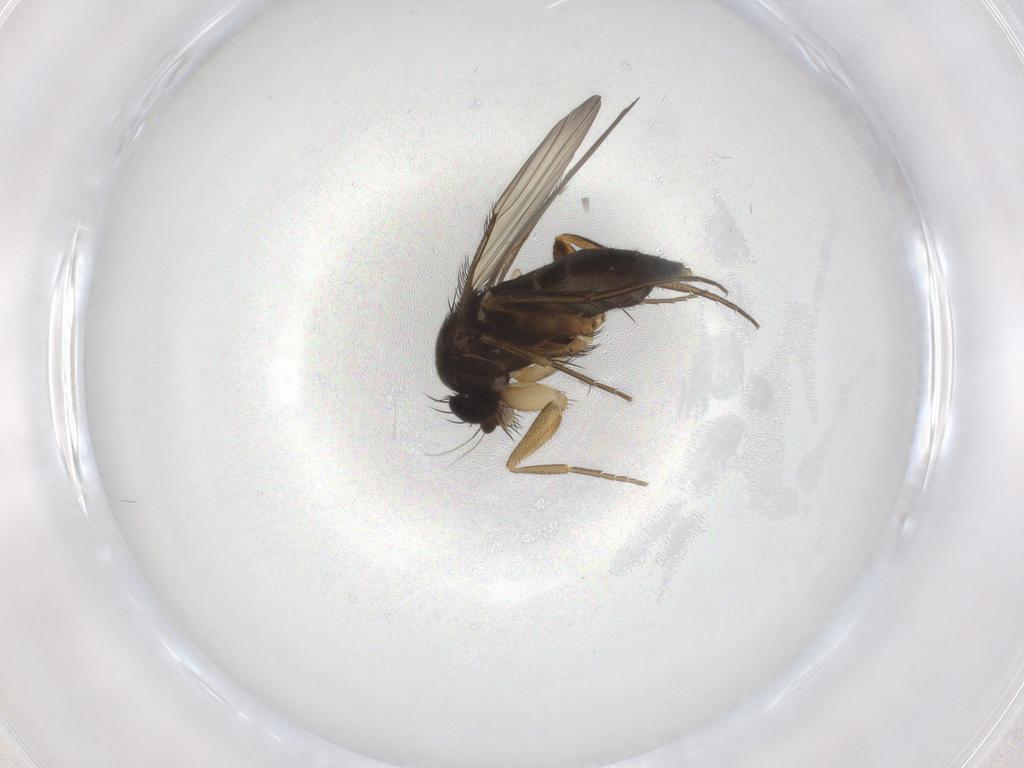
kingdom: Animalia
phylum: Arthropoda
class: Insecta
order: Diptera
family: Phoridae
